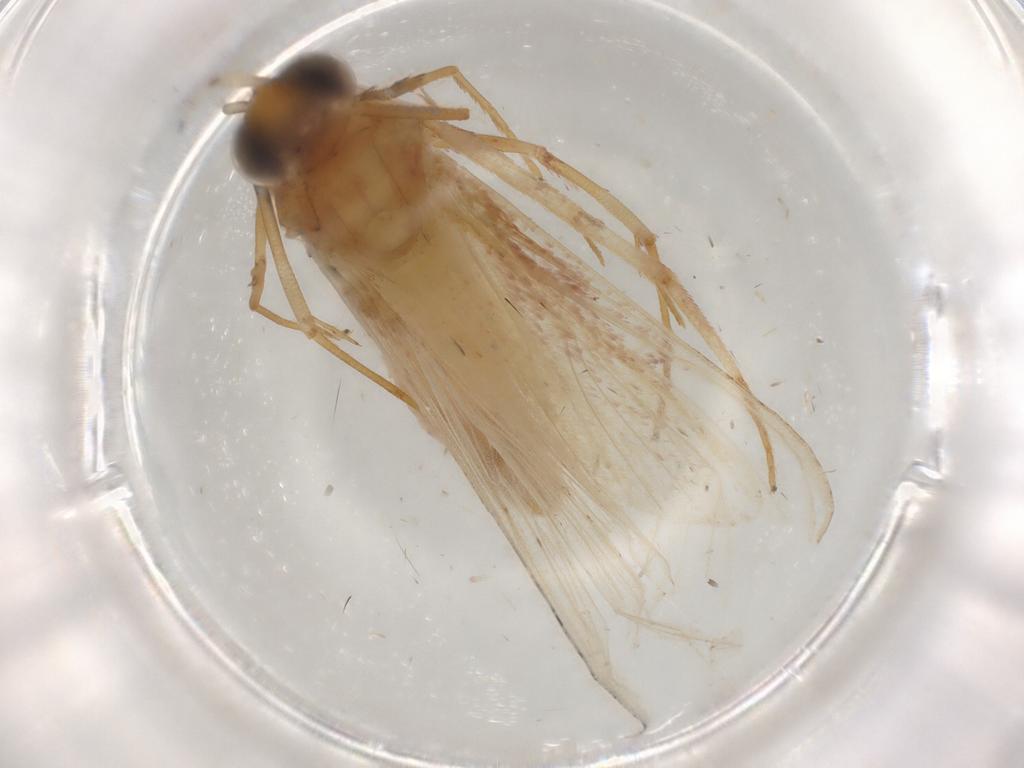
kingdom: Animalia
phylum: Arthropoda
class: Insecta
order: Lepidoptera
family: Pyralidae
